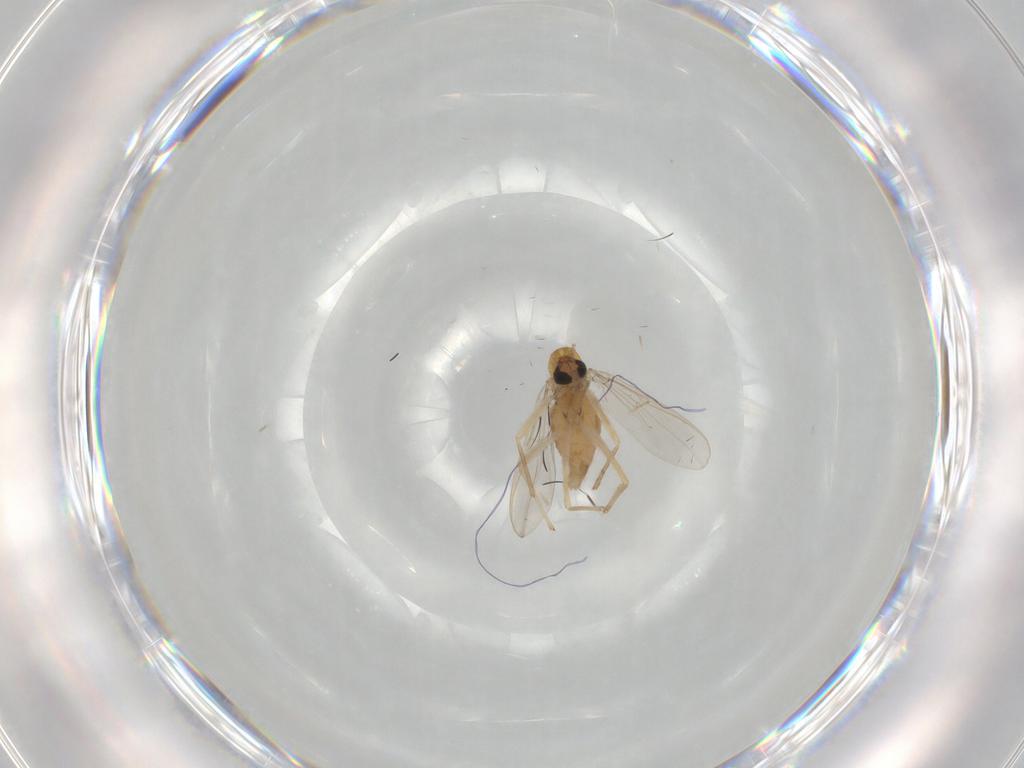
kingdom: Animalia
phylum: Arthropoda
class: Insecta
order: Diptera
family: Chironomidae
